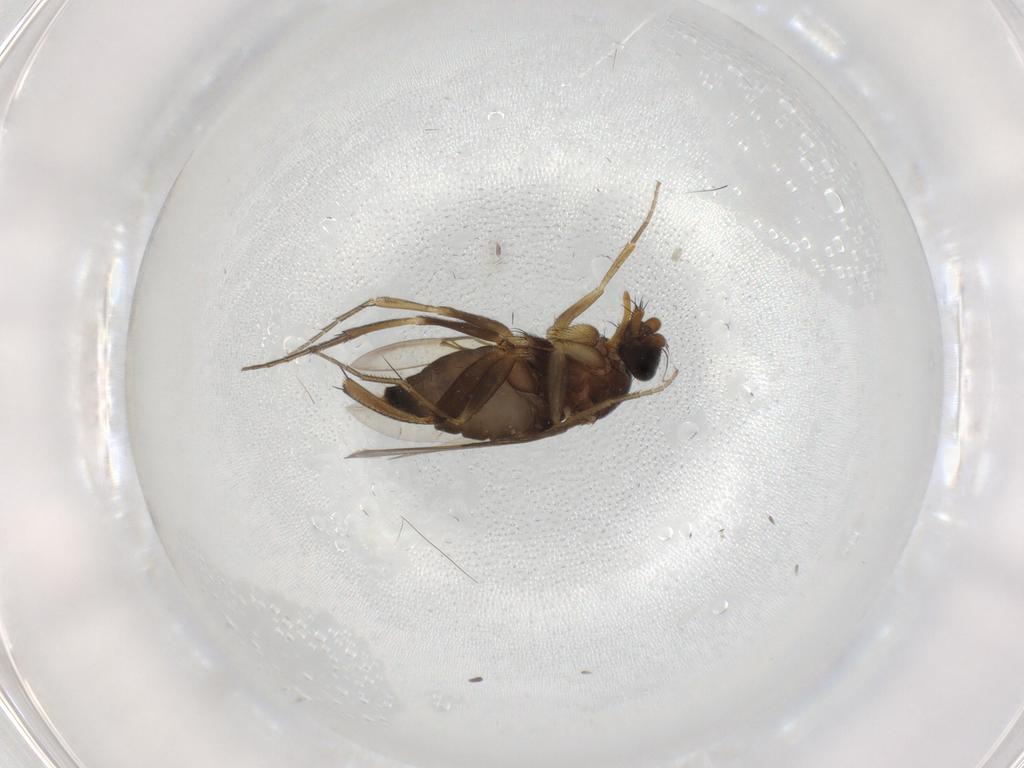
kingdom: Animalia
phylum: Arthropoda
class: Insecta
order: Diptera
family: Phoridae
